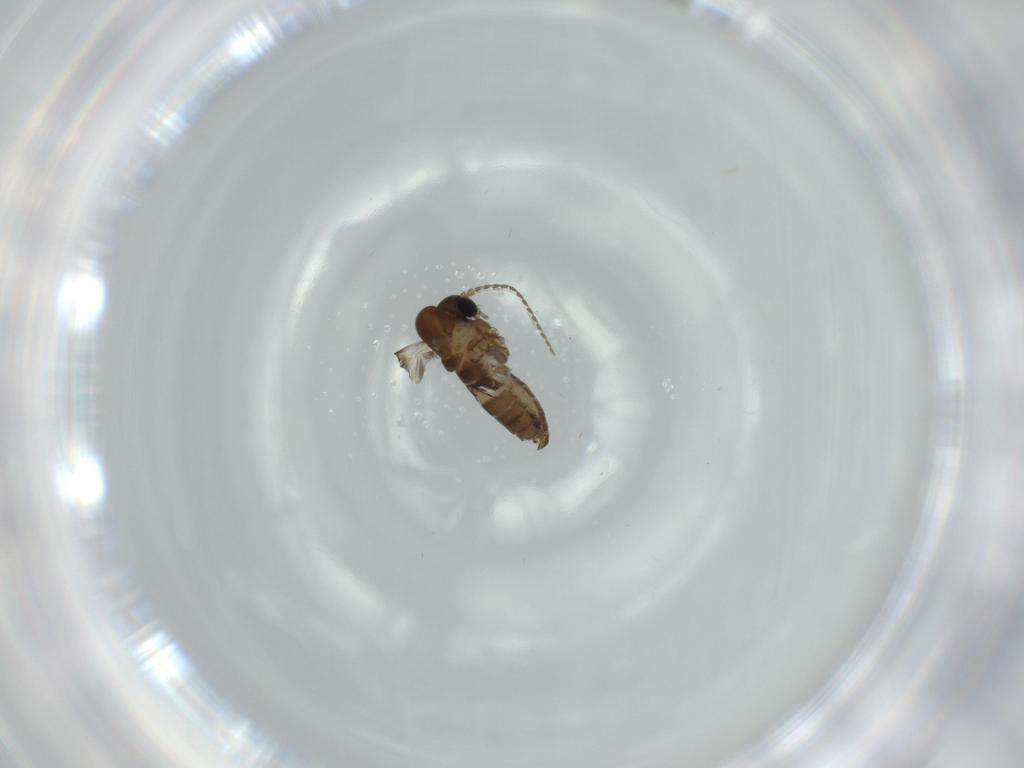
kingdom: Animalia
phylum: Arthropoda
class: Insecta
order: Diptera
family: Psychodidae
